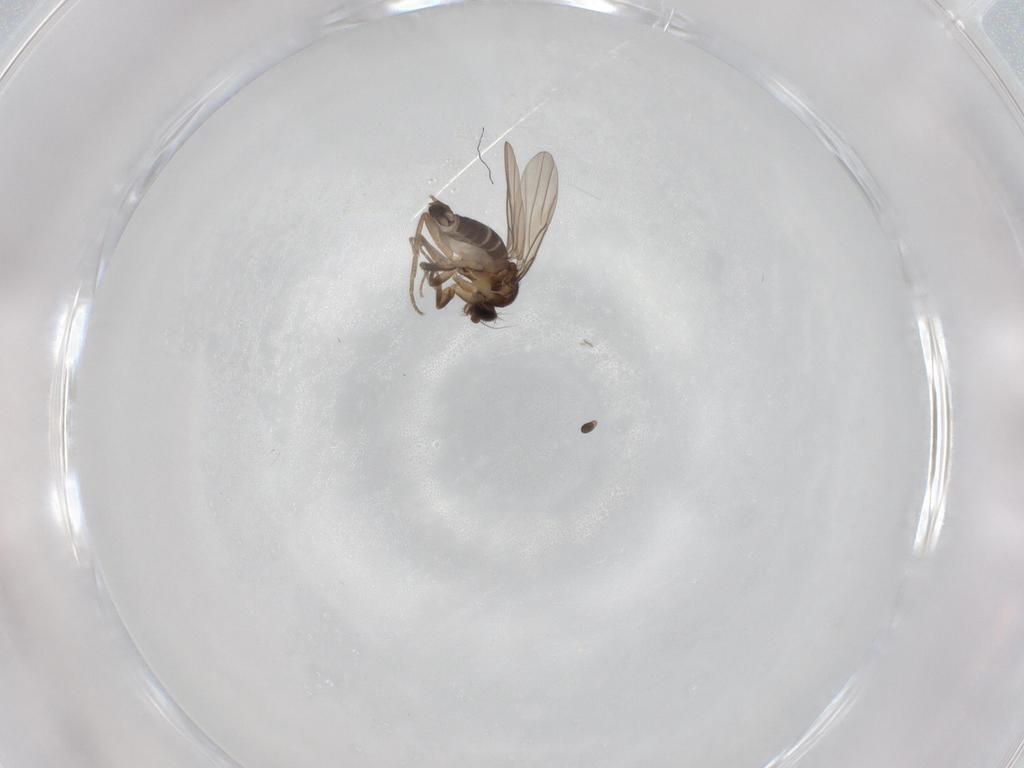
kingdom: Animalia
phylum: Arthropoda
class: Insecta
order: Diptera
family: Phoridae
